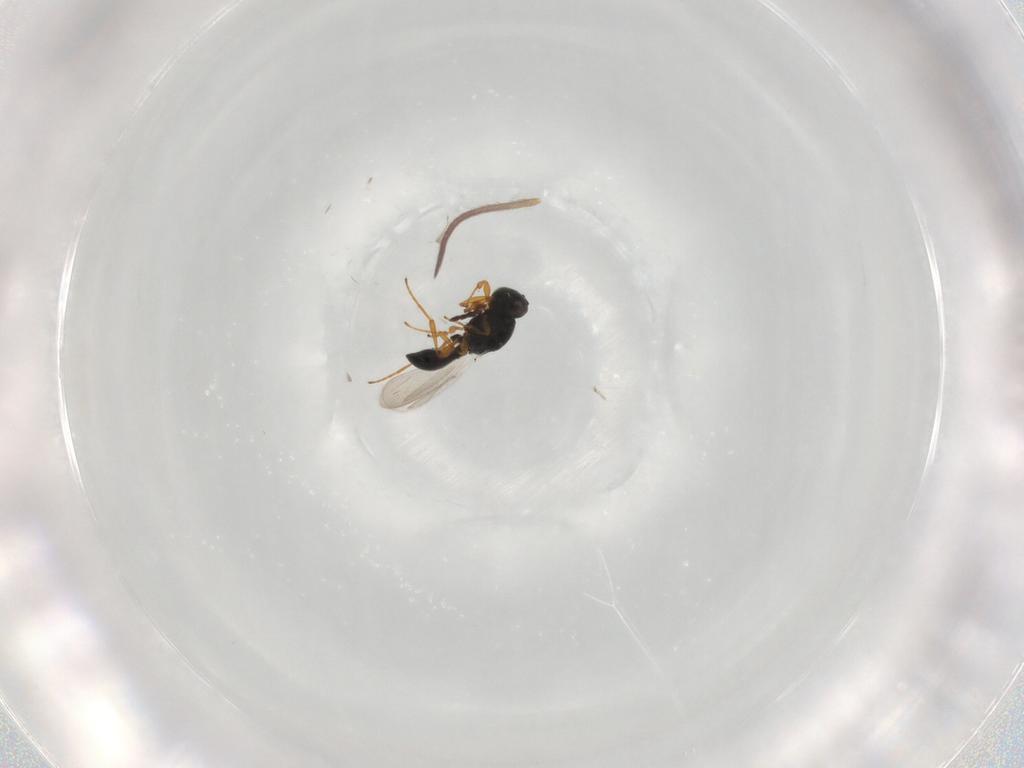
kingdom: Animalia
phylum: Arthropoda
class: Insecta
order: Hymenoptera
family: Platygastridae
